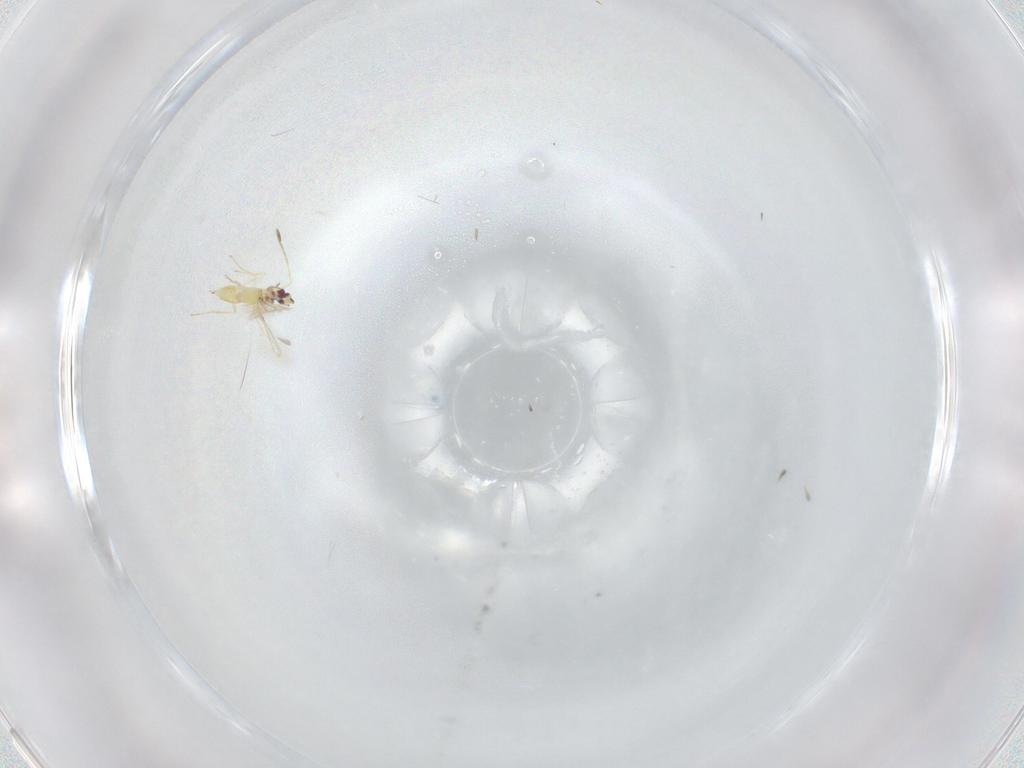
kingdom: Animalia
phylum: Arthropoda
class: Insecta
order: Hymenoptera
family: Mymaridae
